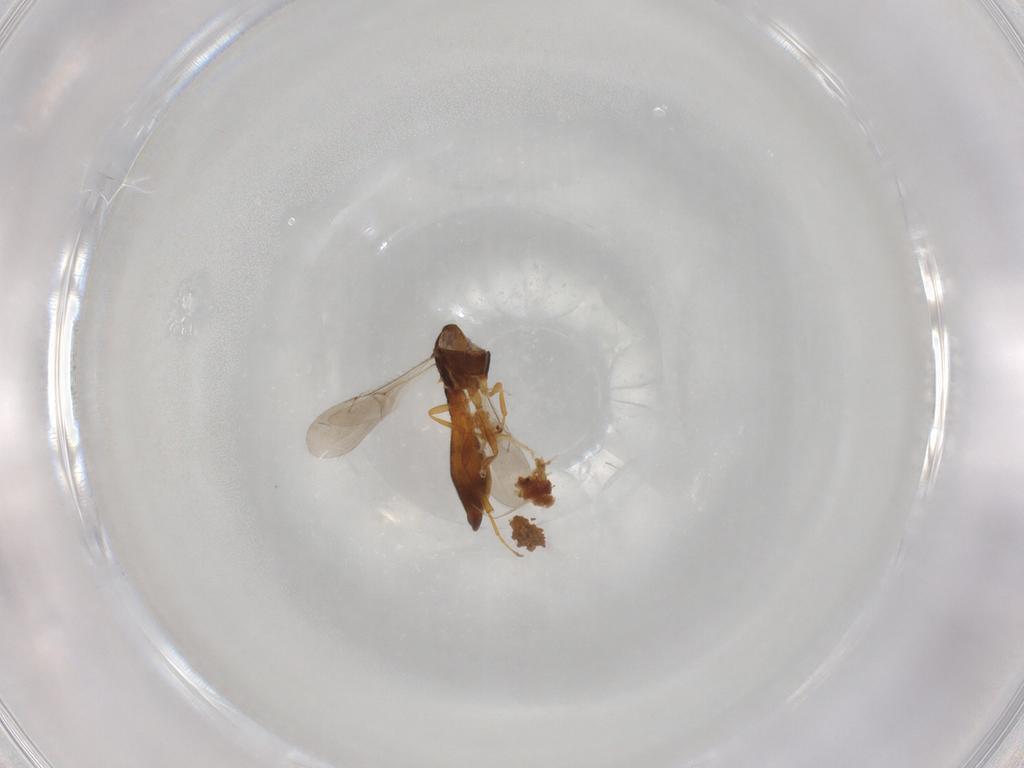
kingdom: Animalia
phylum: Arthropoda
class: Insecta
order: Hymenoptera
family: Scelionidae
